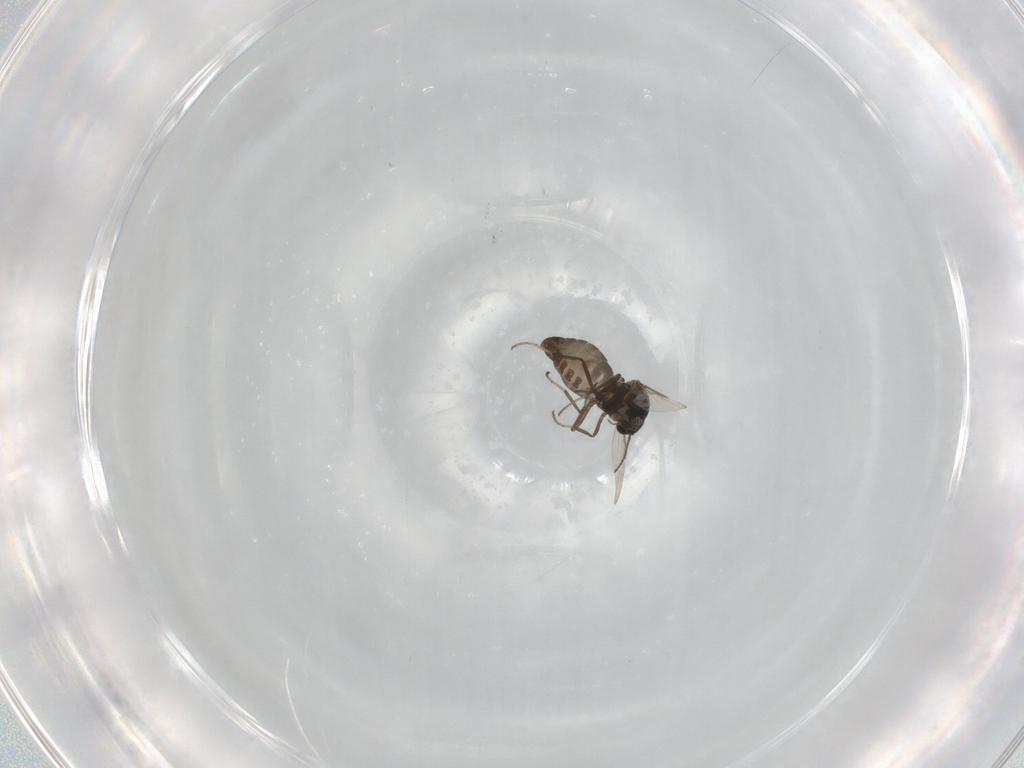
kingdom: Animalia
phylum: Arthropoda
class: Insecta
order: Diptera
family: Ceratopogonidae
